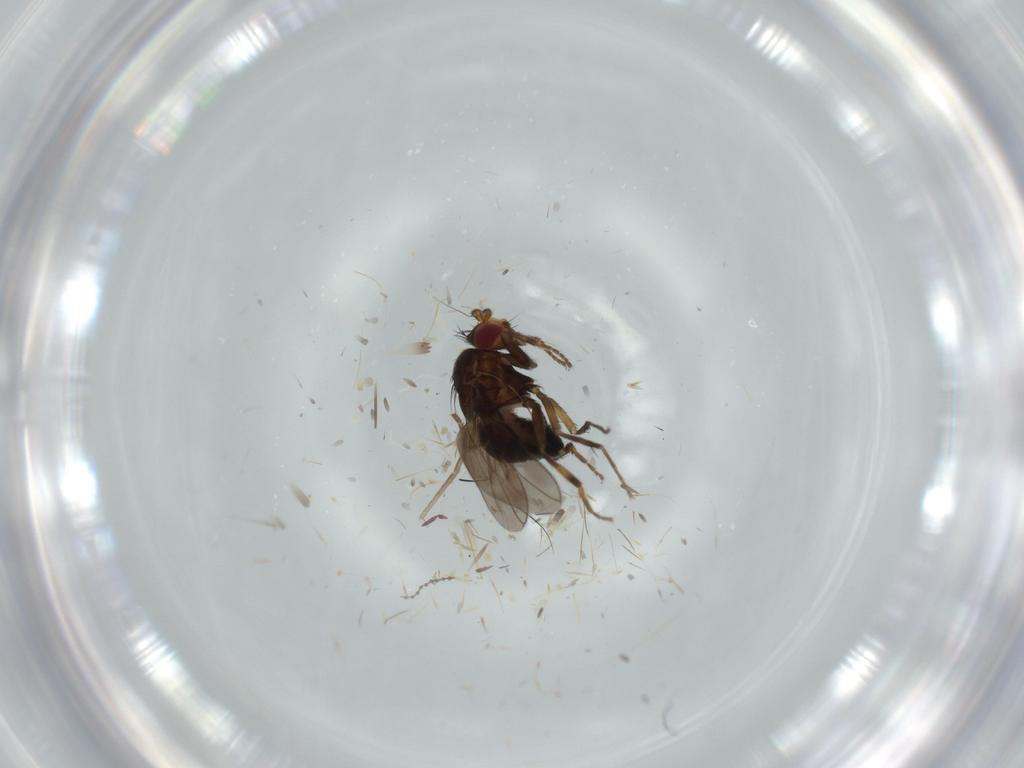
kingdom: Animalia
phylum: Arthropoda
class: Insecta
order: Diptera
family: Sphaeroceridae
